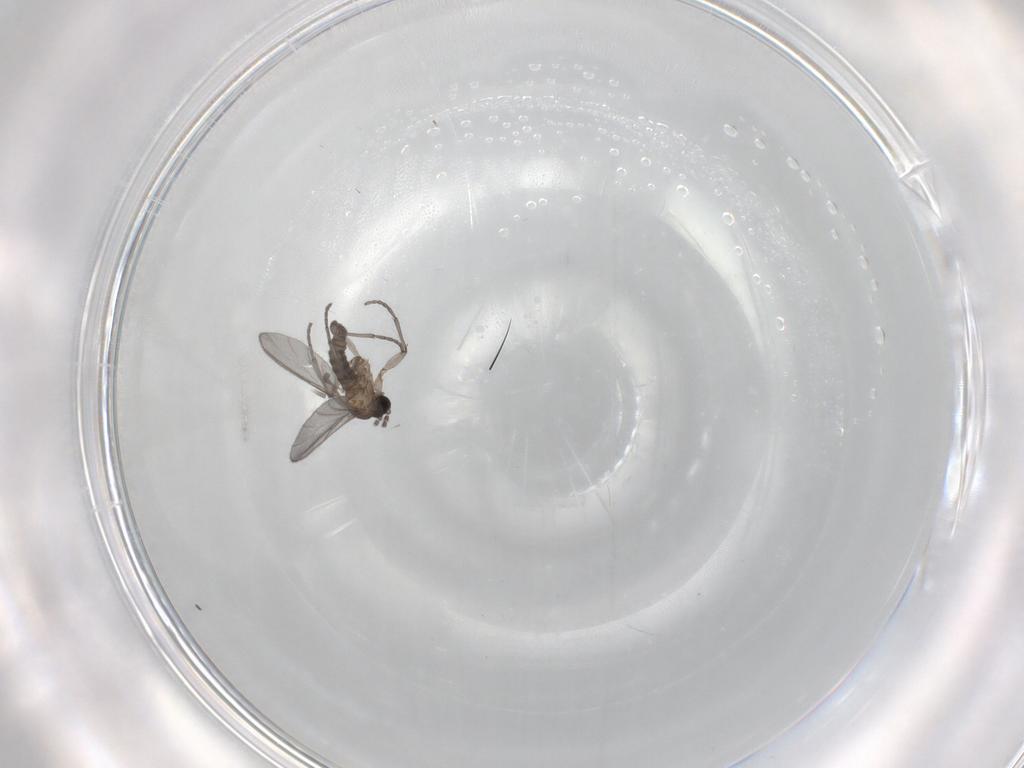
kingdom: Animalia
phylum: Arthropoda
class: Insecta
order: Diptera
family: Sciaridae
